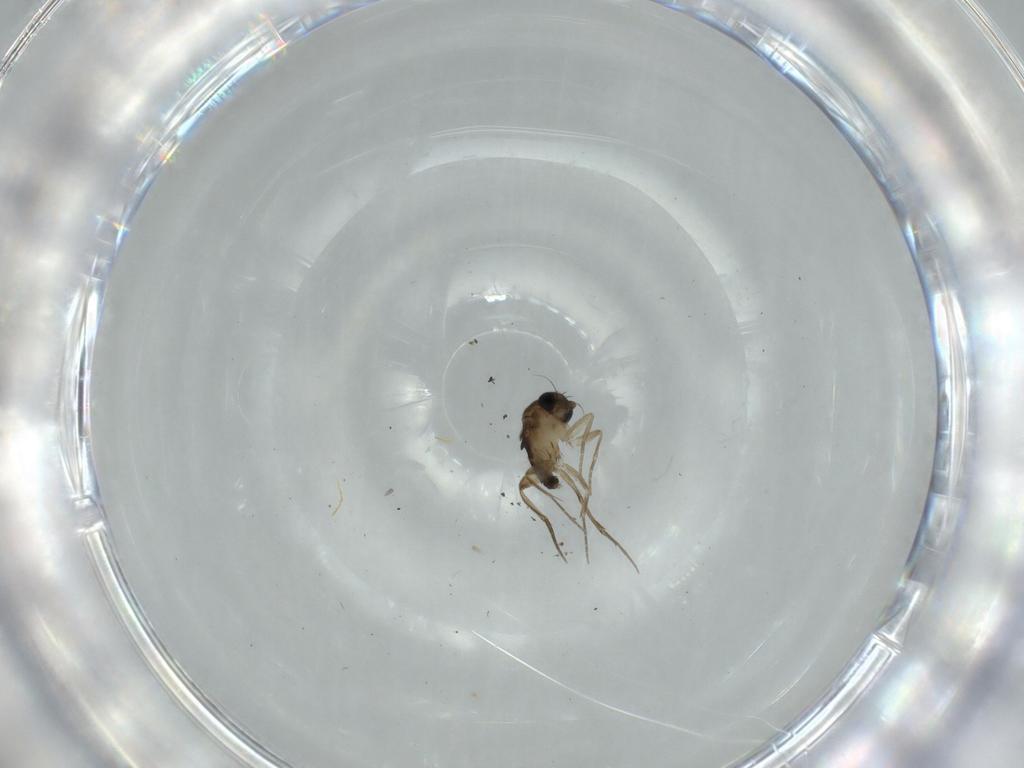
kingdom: Animalia
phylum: Arthropoda
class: Insecta
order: Diptera
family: Phoridae
